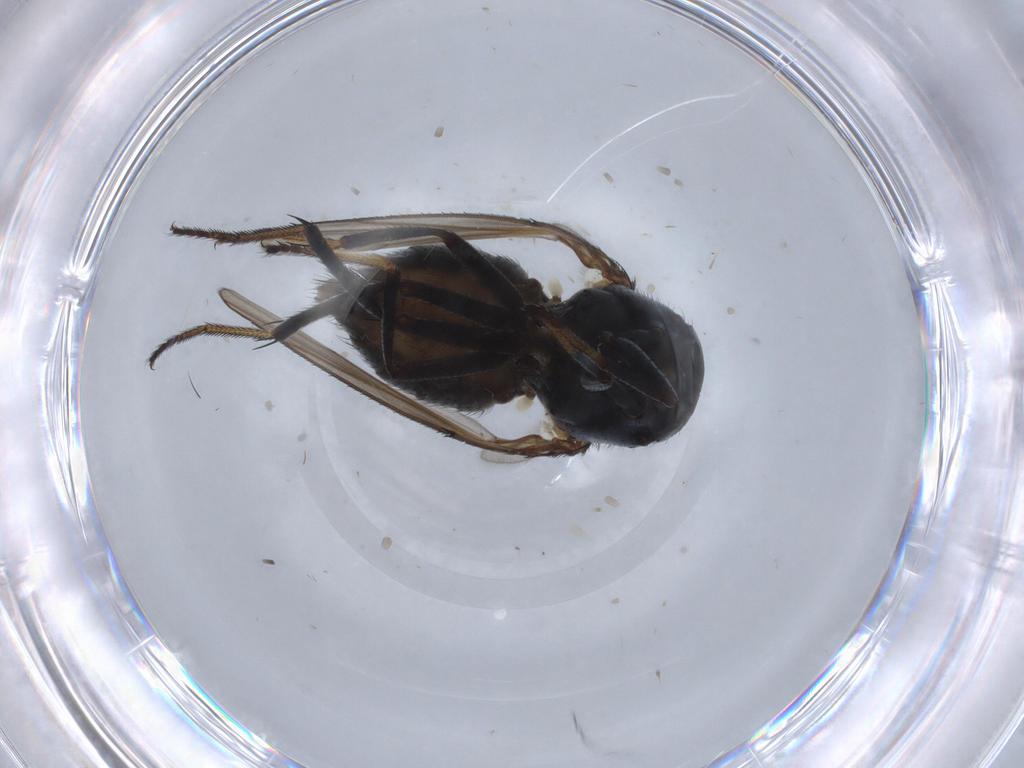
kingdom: Animalia
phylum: Arthropoda
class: Insecta
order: Diptera
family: Ephydridae
